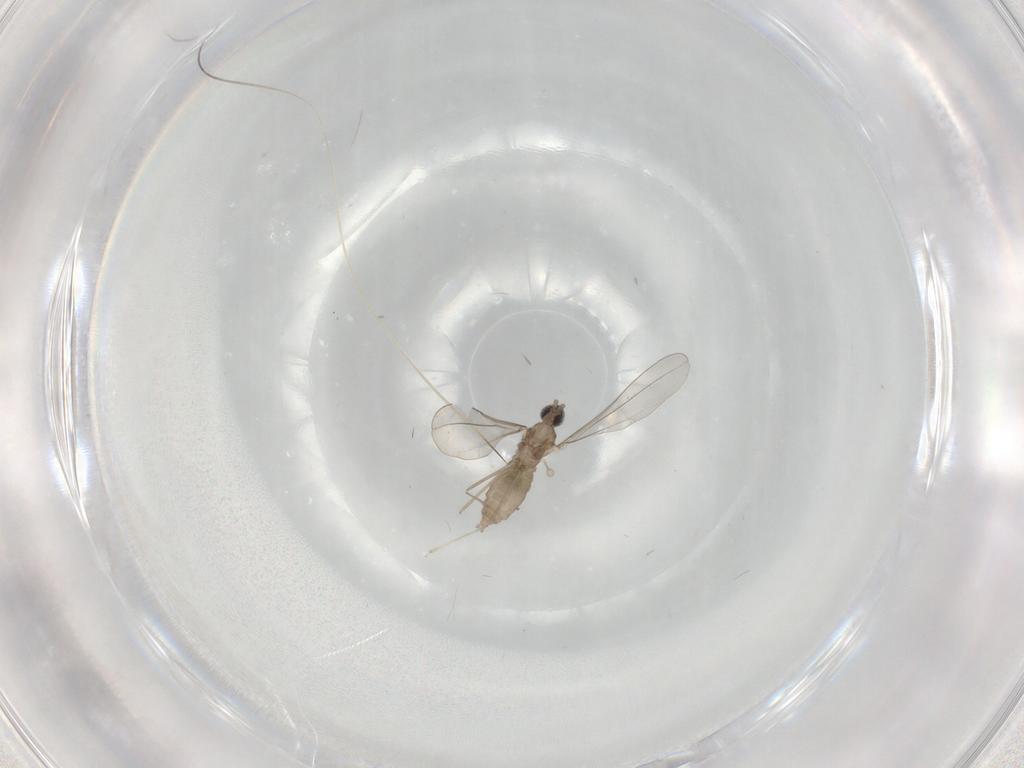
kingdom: Animalia
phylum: Arthropoda
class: Insecta
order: Diptera
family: Cecidomyiidae
